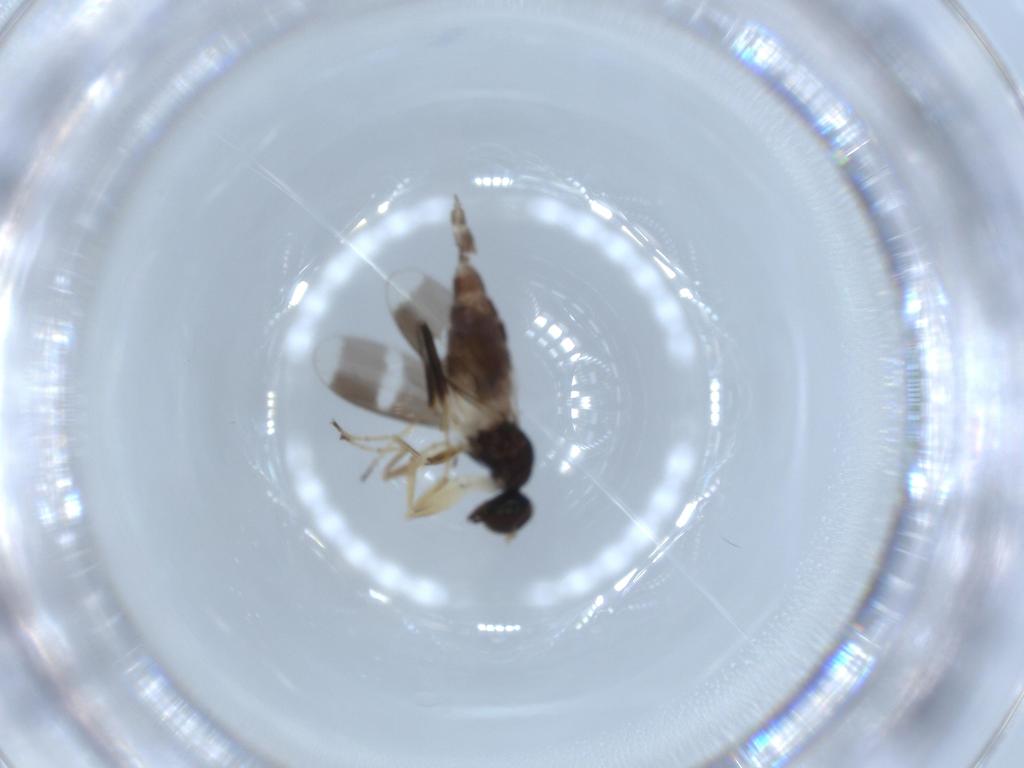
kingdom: Animalia
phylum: Arthropoda
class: Insecta
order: Diptera
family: Hybotidae
